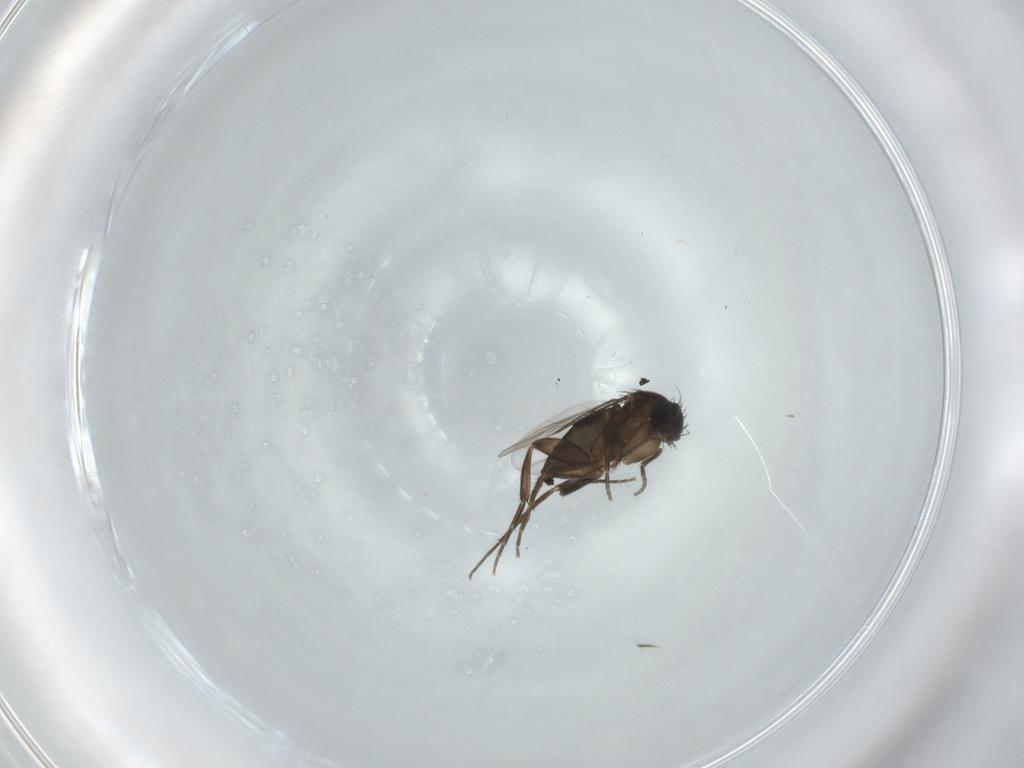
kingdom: Animalia
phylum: Arthropoda
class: Insecta
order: Diptera
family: Phoridae
